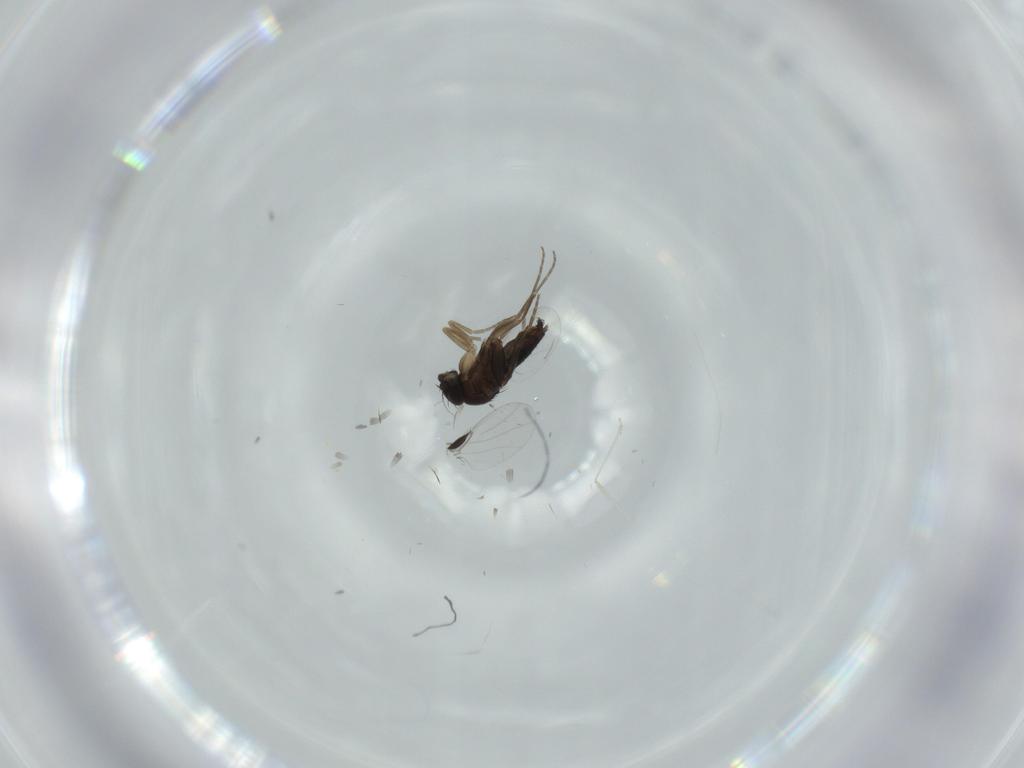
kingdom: Animalia
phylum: Arthropoda
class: Insecta
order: Diptera
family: Phoridae
